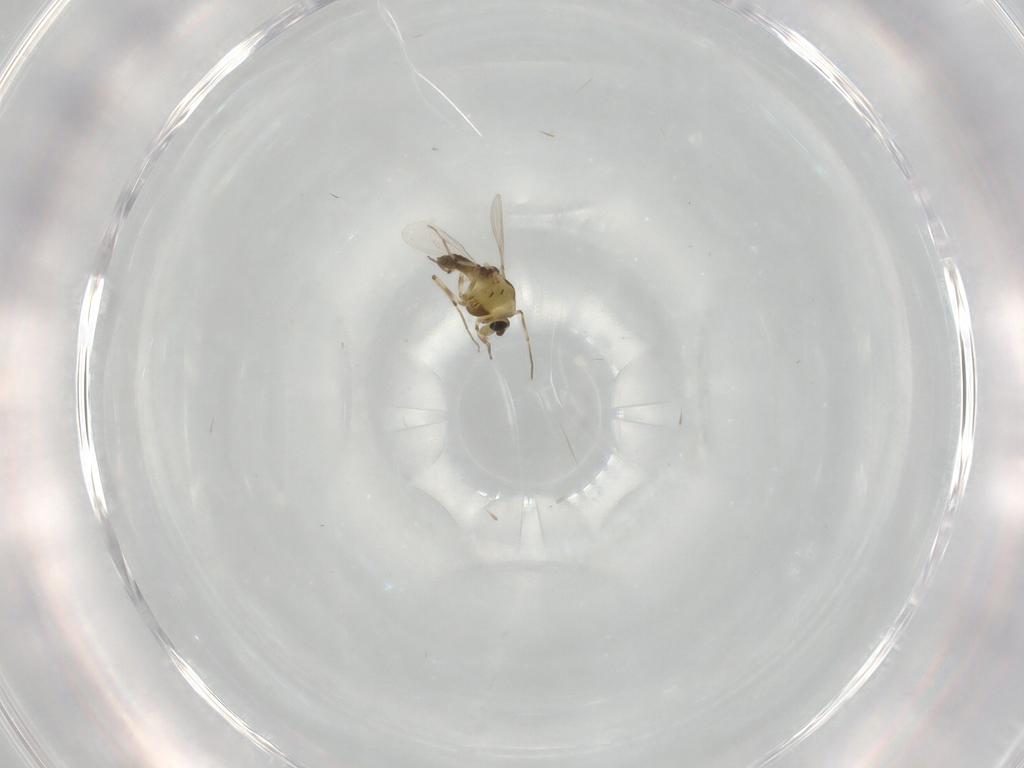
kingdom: Animalia
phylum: Arthropoda
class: Insecta
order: Diptera
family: Chironomidae
